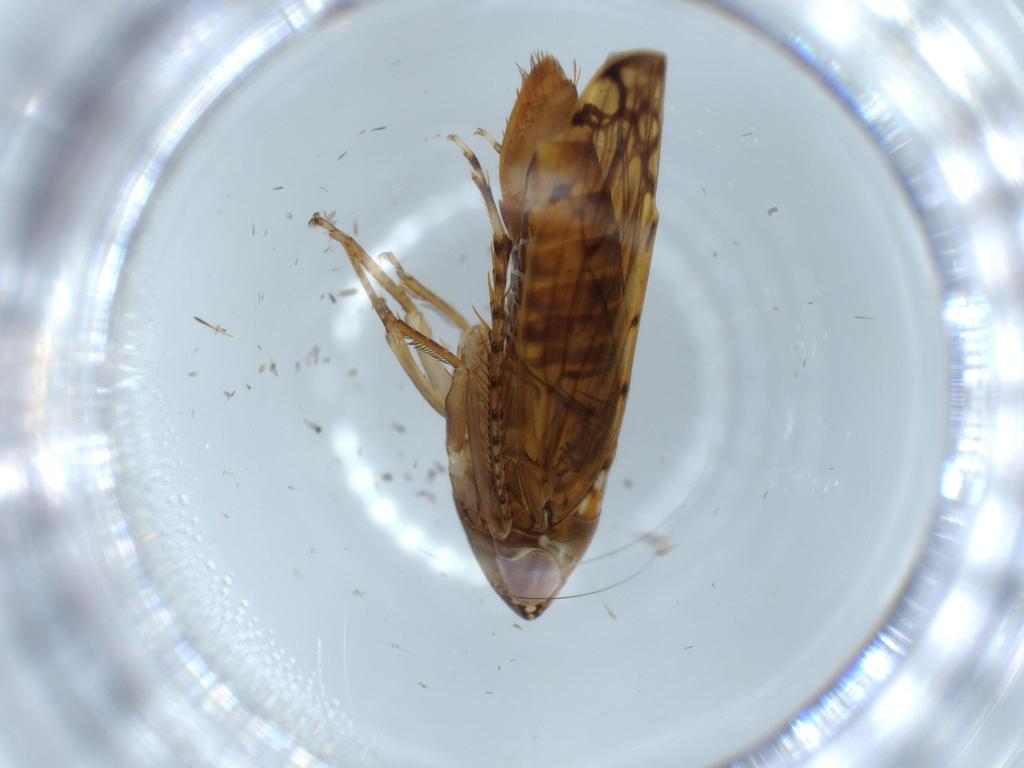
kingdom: Animalia
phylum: Arthropoda
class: Insecta
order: Hemiptera
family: Cicadellidae
